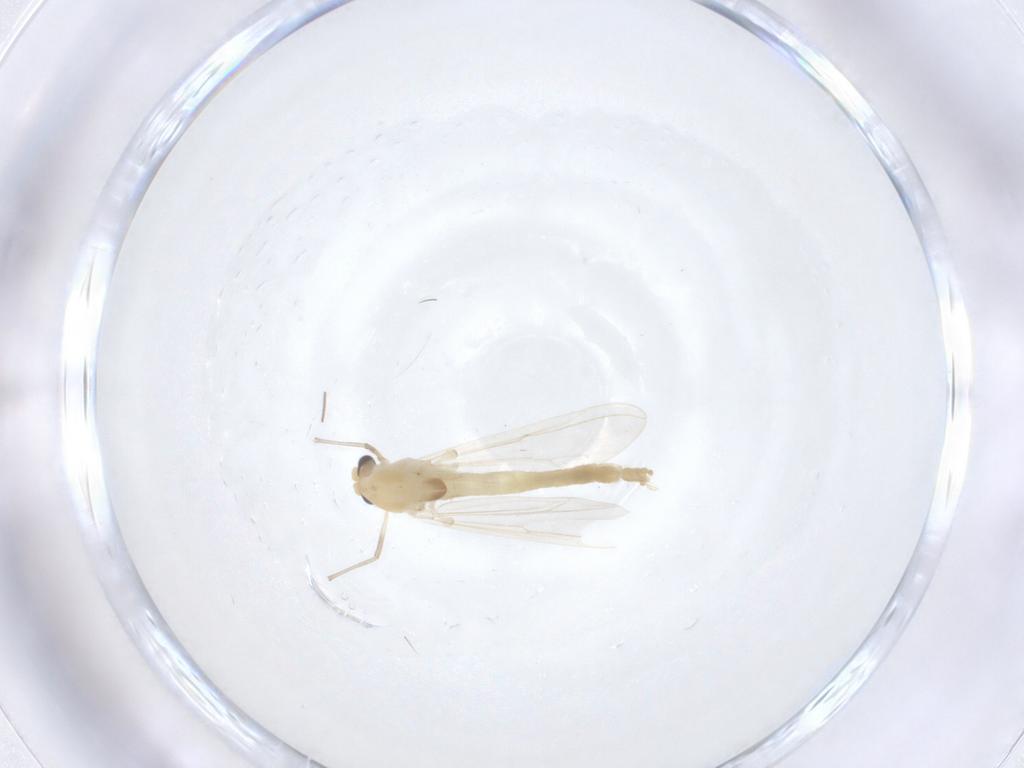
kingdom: Animalia
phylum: Arthropoda
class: Insecta
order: Diptera
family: Chironomidae
